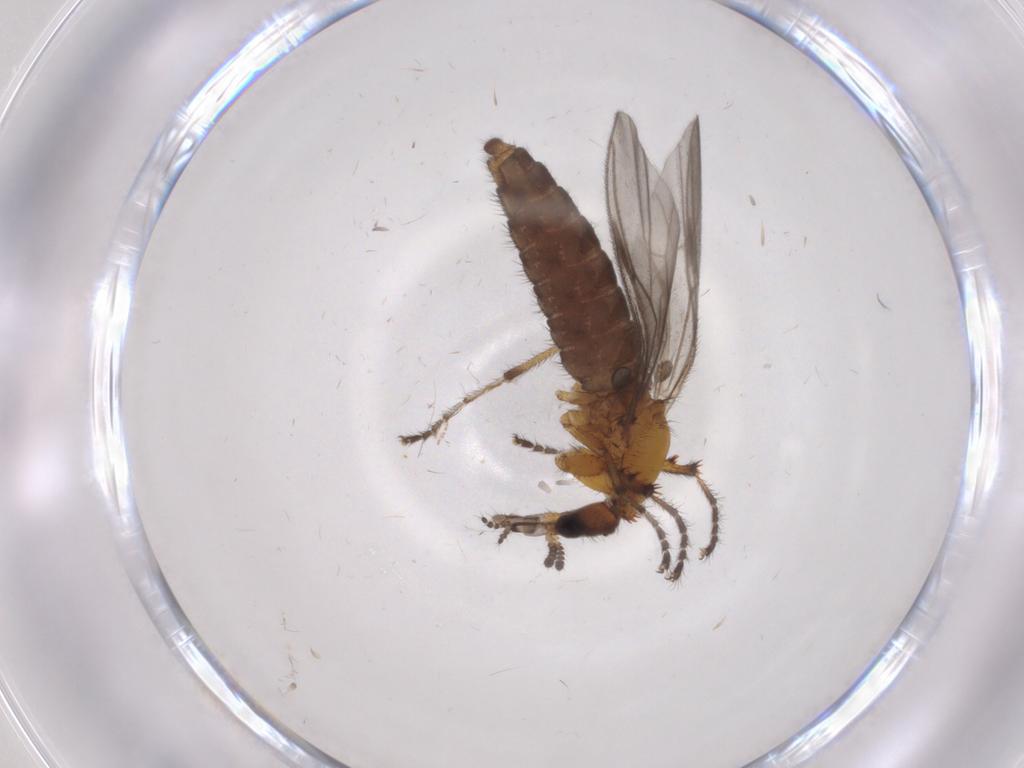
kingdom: Animalia
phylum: Arthropoda
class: Insecta
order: Diptera
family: Bibionidae
